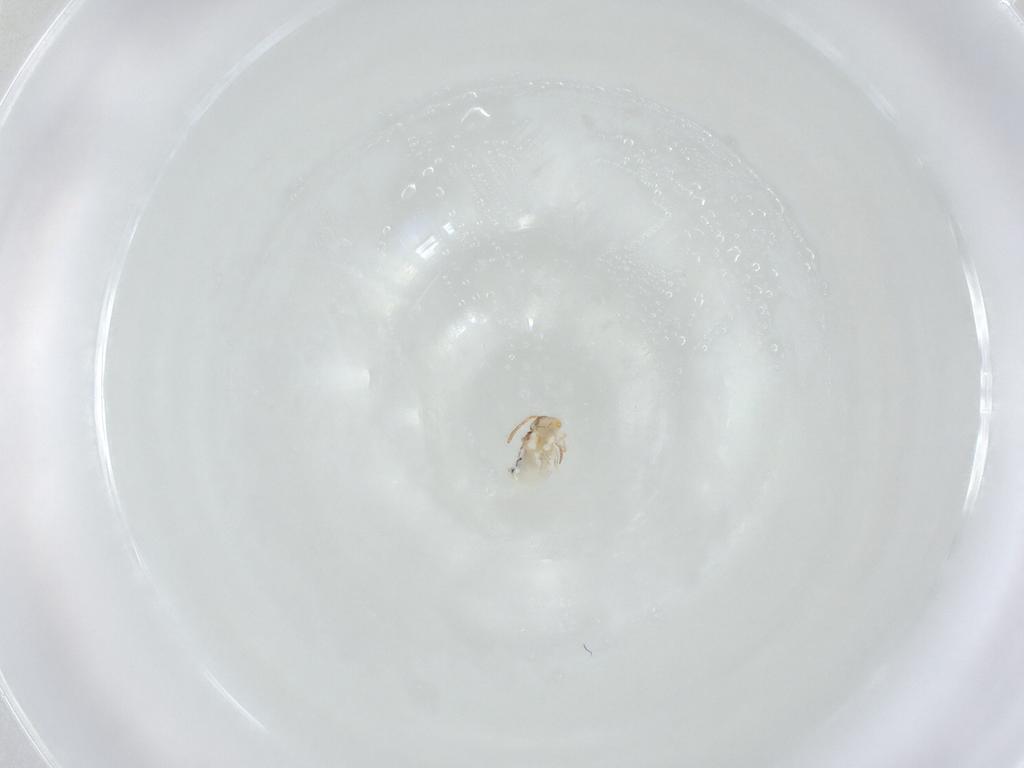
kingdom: Animalia
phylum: Arthropoda
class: Collembola
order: Symphypleona
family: Bourletiellidae
